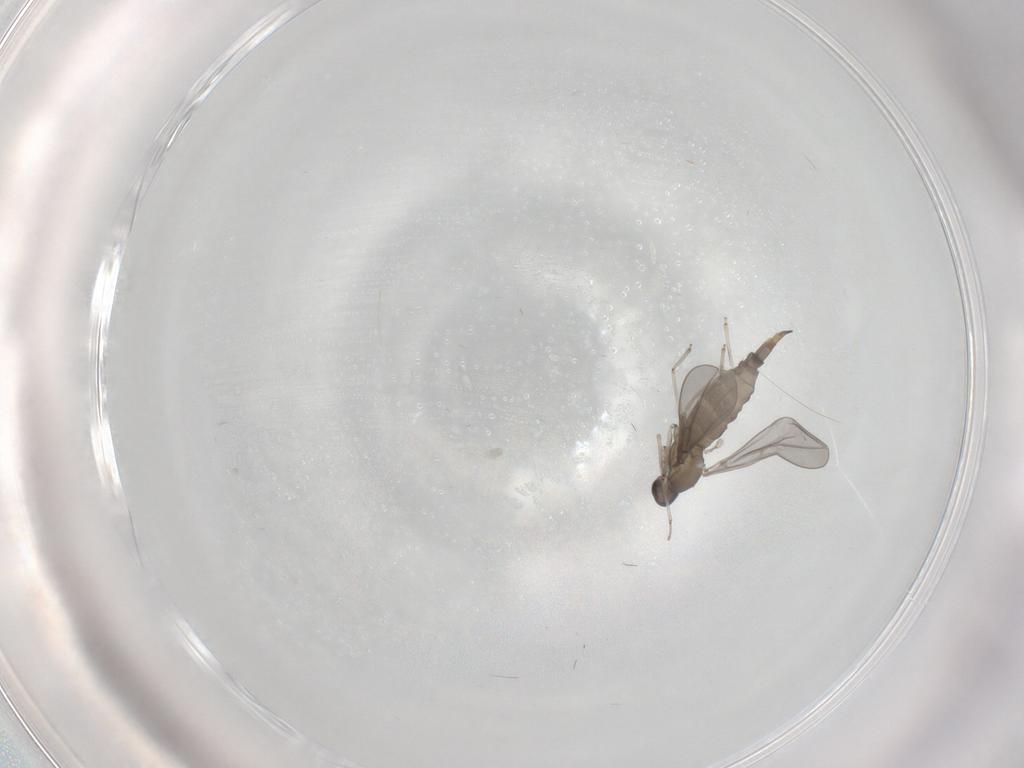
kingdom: Animalia
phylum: Arthropoda
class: Insecta
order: Diptera
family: Cecidomyiidae
